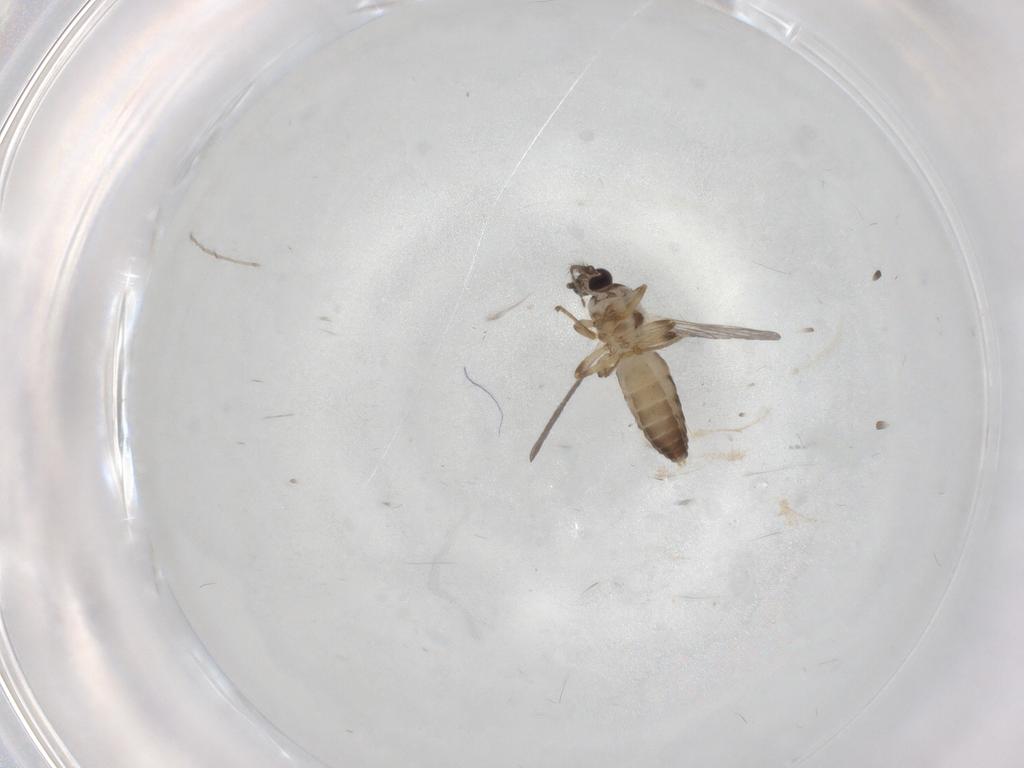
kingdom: Animalia
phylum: Arthropoda
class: Insecta
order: Diptera
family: Ceratopogonidae
